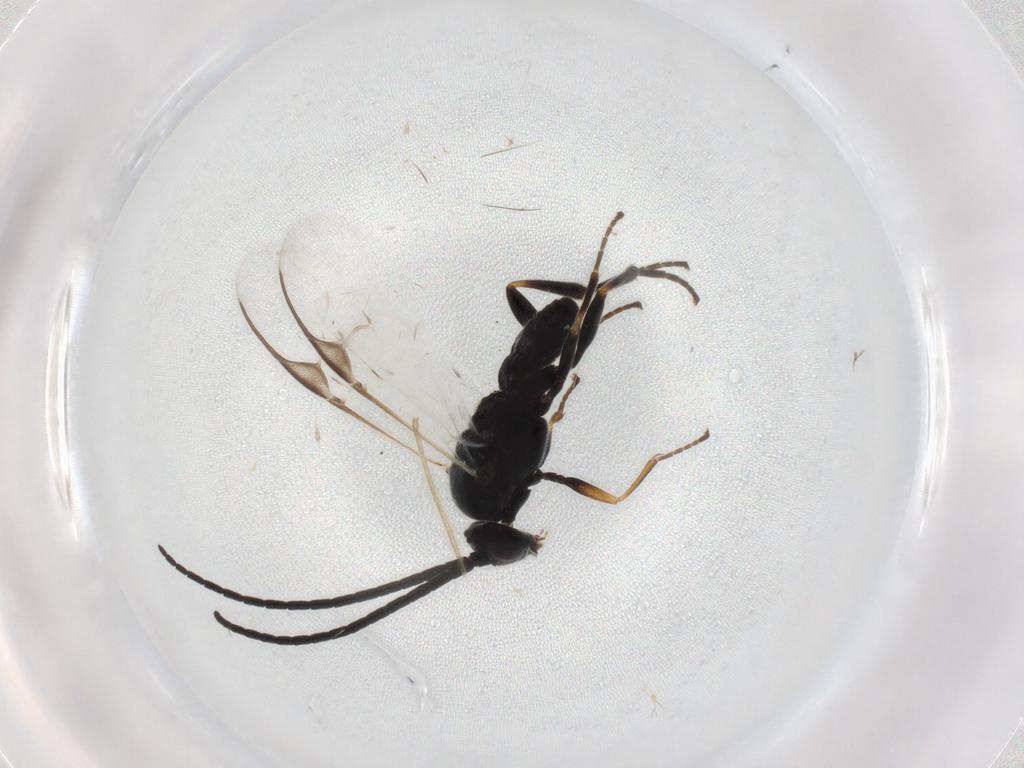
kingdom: Animalia
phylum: Arthropoda
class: Insecta
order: Hymenoptera
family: Braconidae
